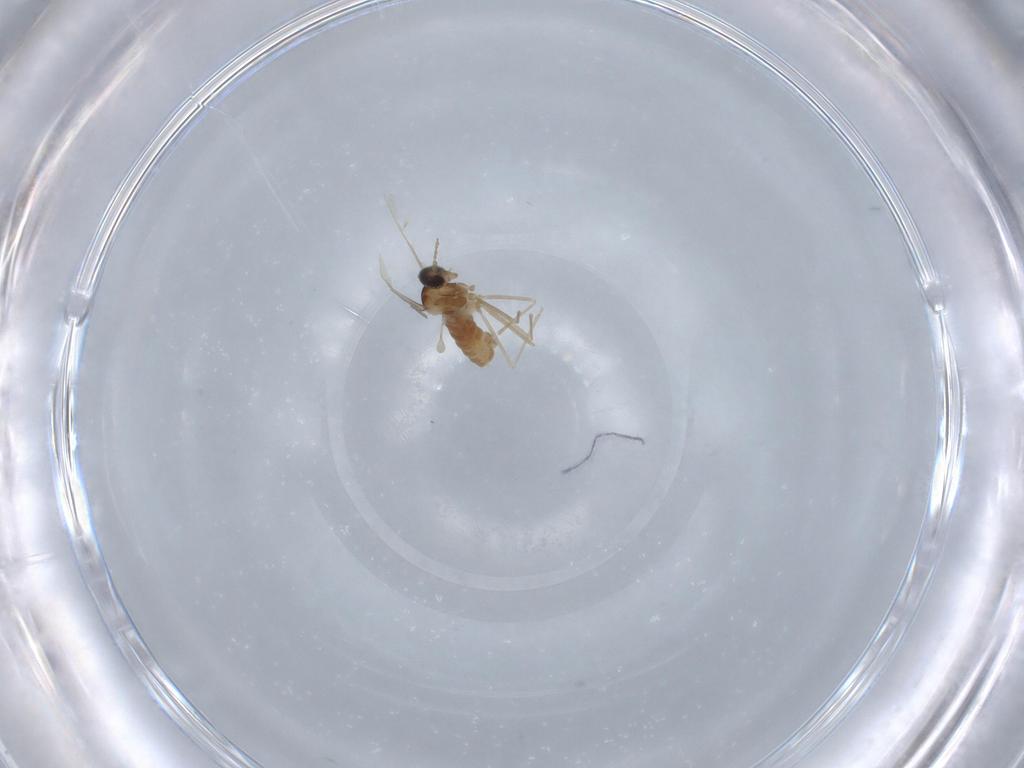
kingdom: Animalia
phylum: Arthropoda
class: Insecta
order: Diptera
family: Cecidomyiidae
